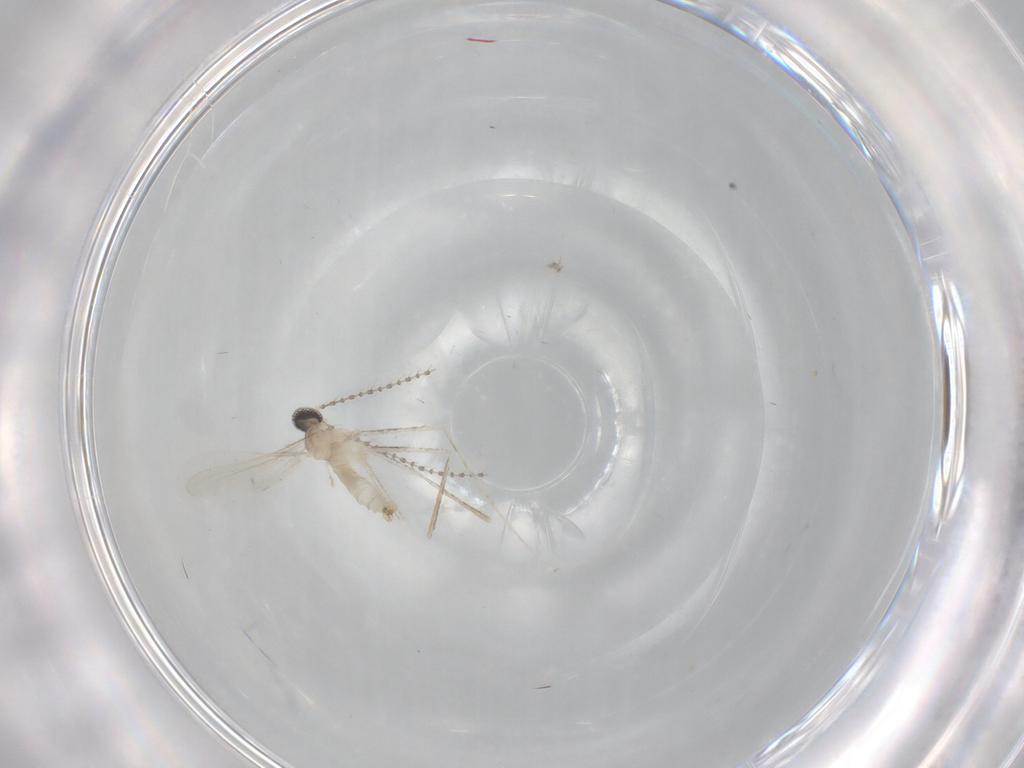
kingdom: Animalia
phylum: Arthropoda
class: Insecta
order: Diptera
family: Cecidomyiidae
